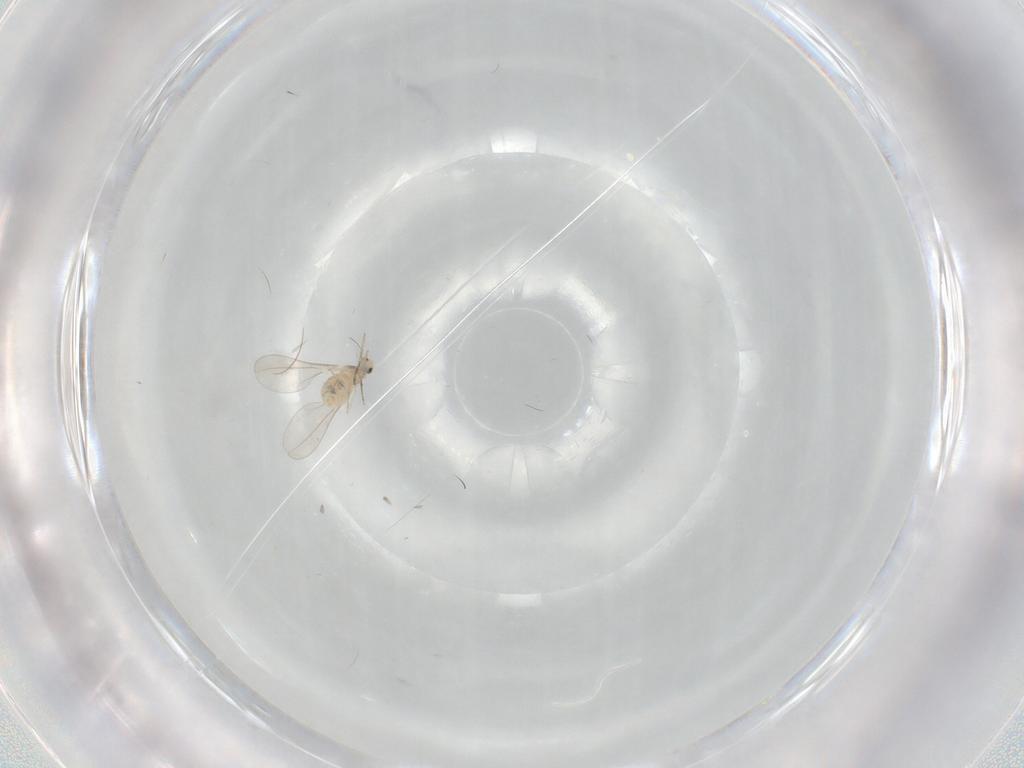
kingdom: Animalia
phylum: Arthropoda
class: Insecta
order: Diptera
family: Cecidomyiidae
